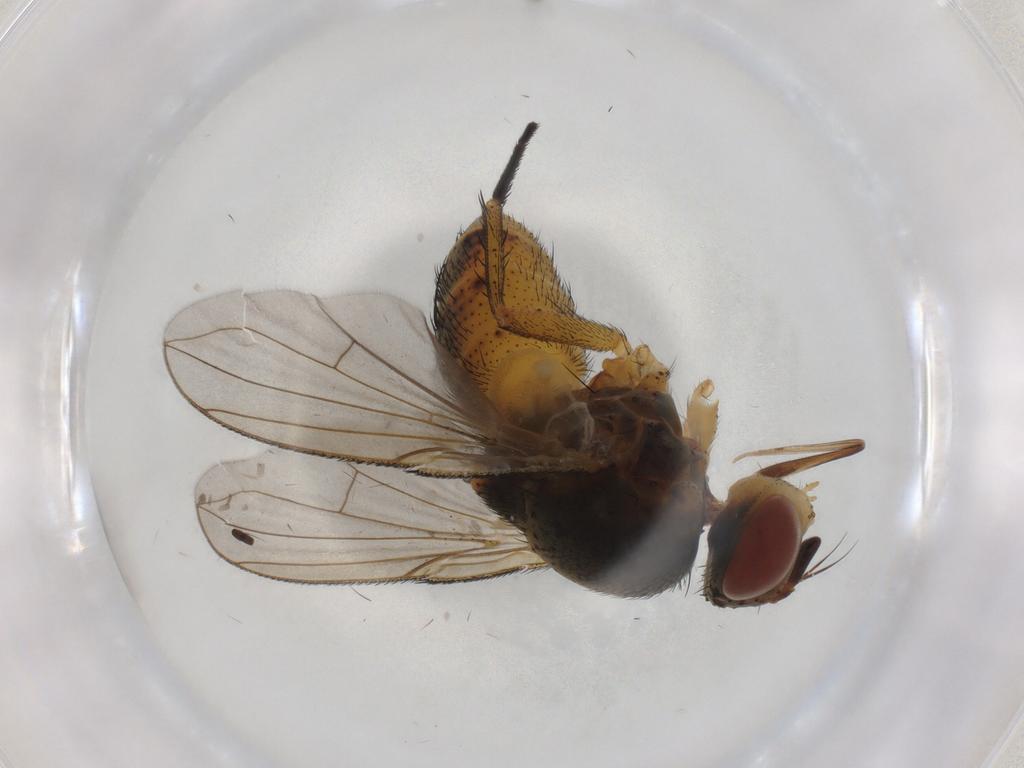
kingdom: Animalia
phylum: Arthropoda
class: Insecta
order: Diptera
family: Tachinidae
